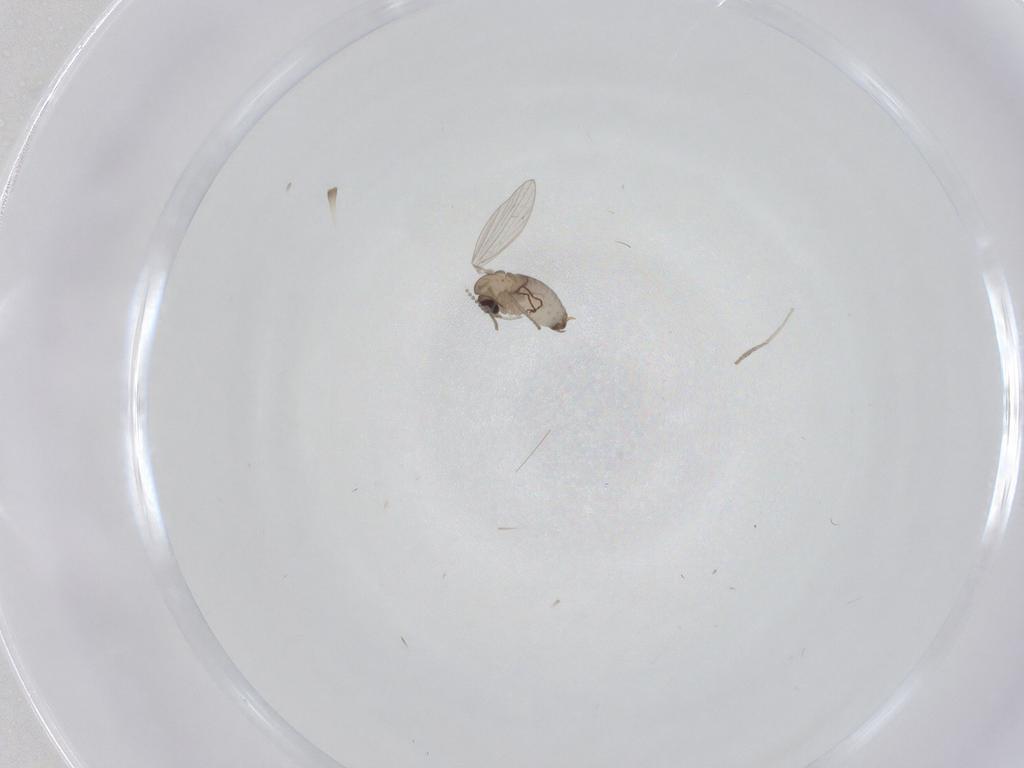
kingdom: Animalia
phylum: Arthropoda
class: Insecta
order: Diptera
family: Psychodidae
